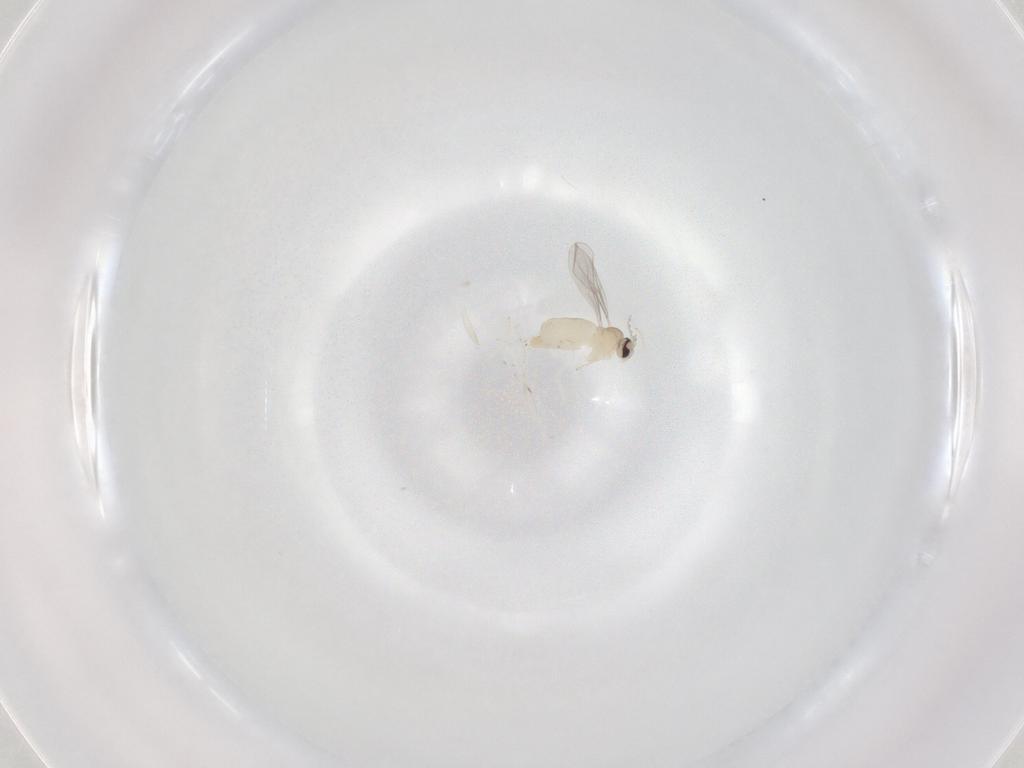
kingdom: Animalia
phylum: Arthropoda
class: Insecta
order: Diptera
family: Cecidomyiidae
